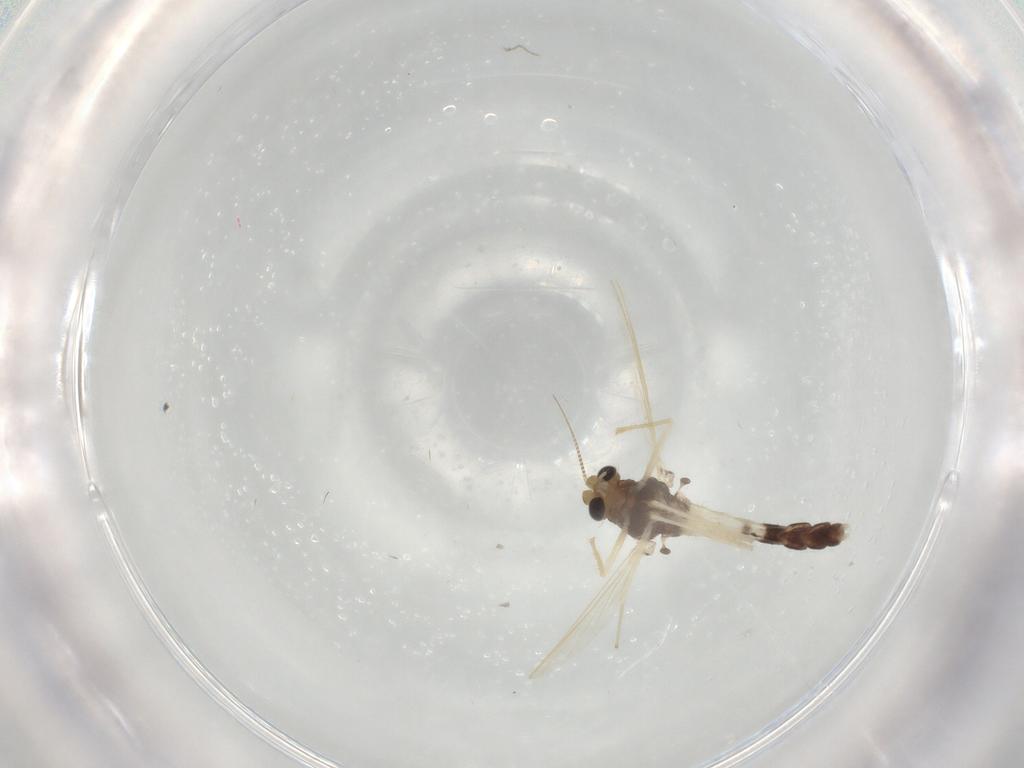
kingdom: Animalia
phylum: Arthropoda
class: Insecta
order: Diptera
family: Chironomidae
